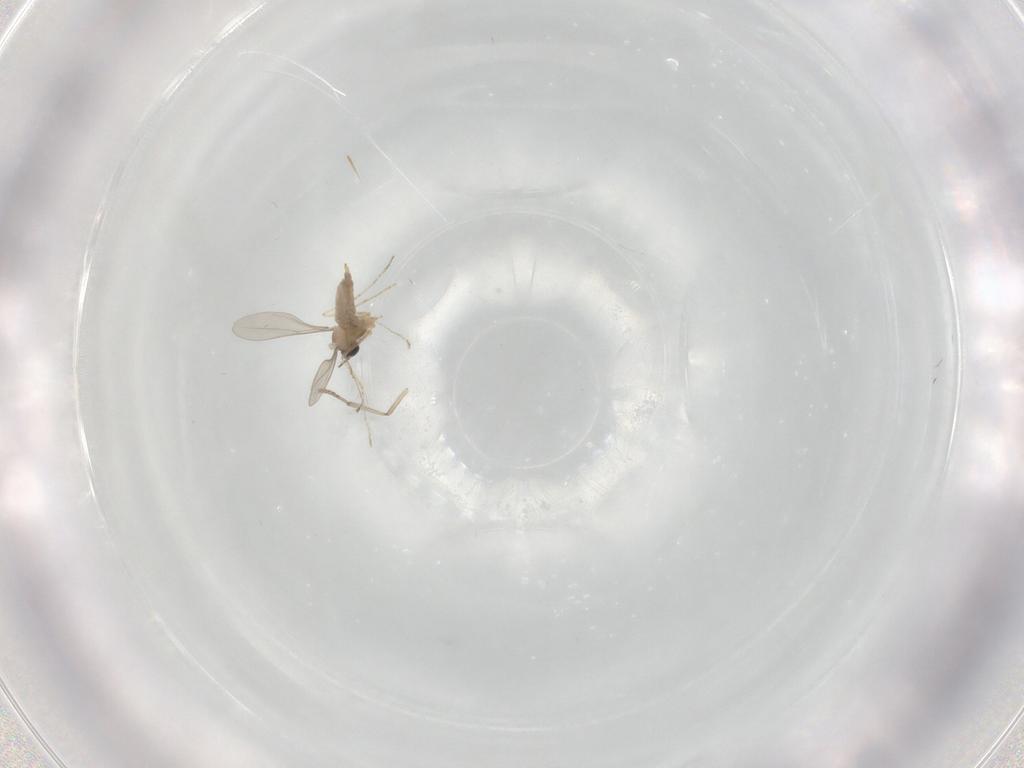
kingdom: Animalia
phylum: Arthropoda
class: Insecta
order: Diptera
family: Cecidomyiidae
